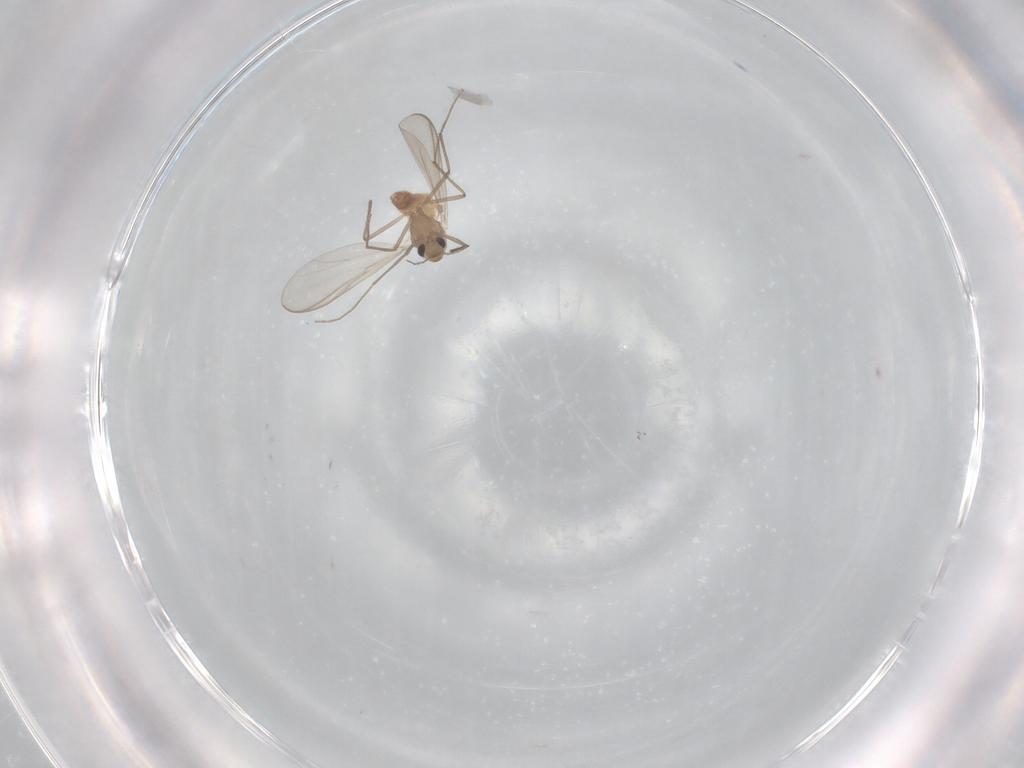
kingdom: Animalia
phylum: Arthropoda
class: Insecta
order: Diptera
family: Chironomidae
